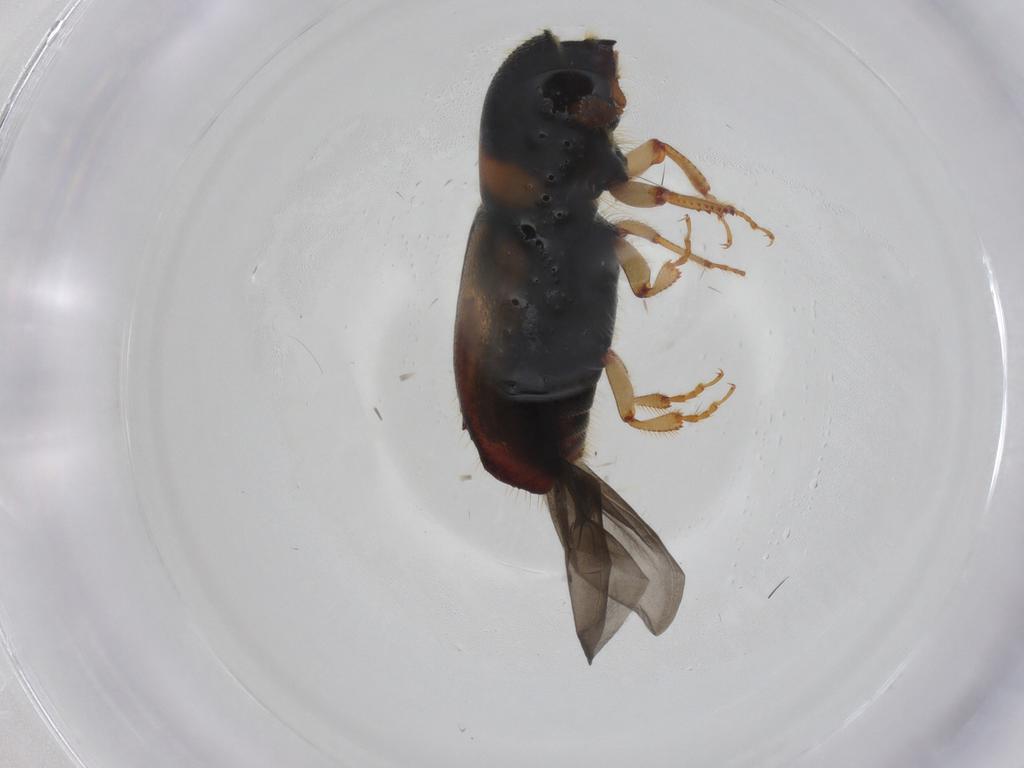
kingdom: Animalia
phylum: Arthropoda
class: Insecta
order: Coleoptera
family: Curculionidae
